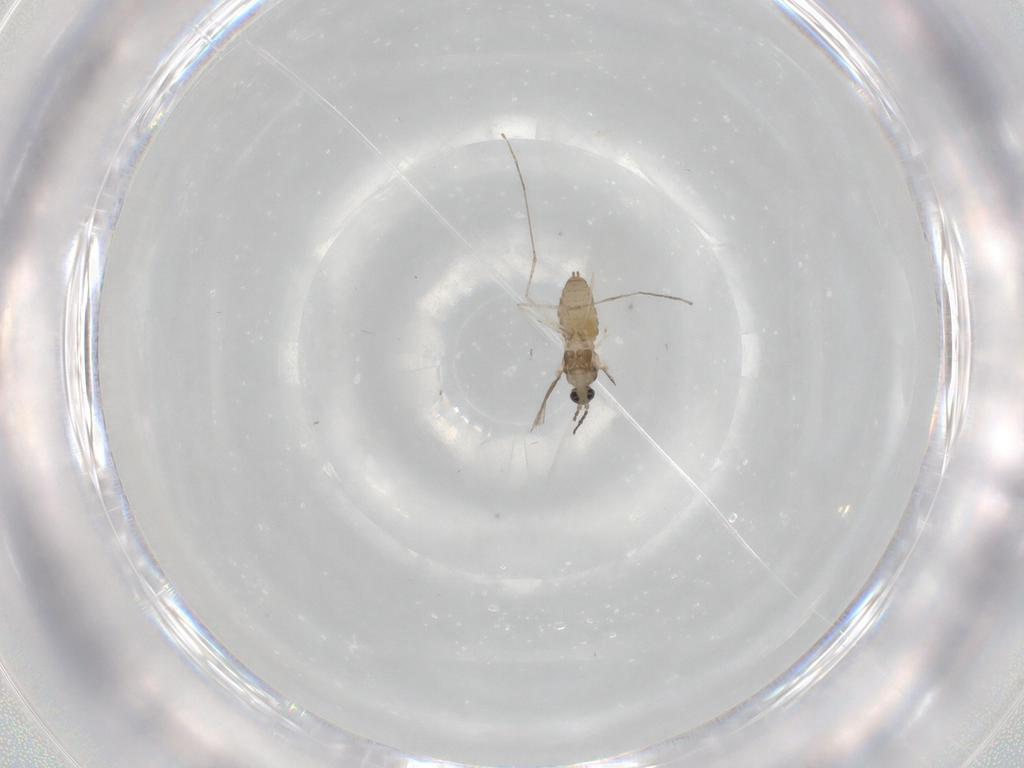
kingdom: Animalia
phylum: Arthropoda
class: Insecta
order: Diptera
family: Cecidomyiidae
